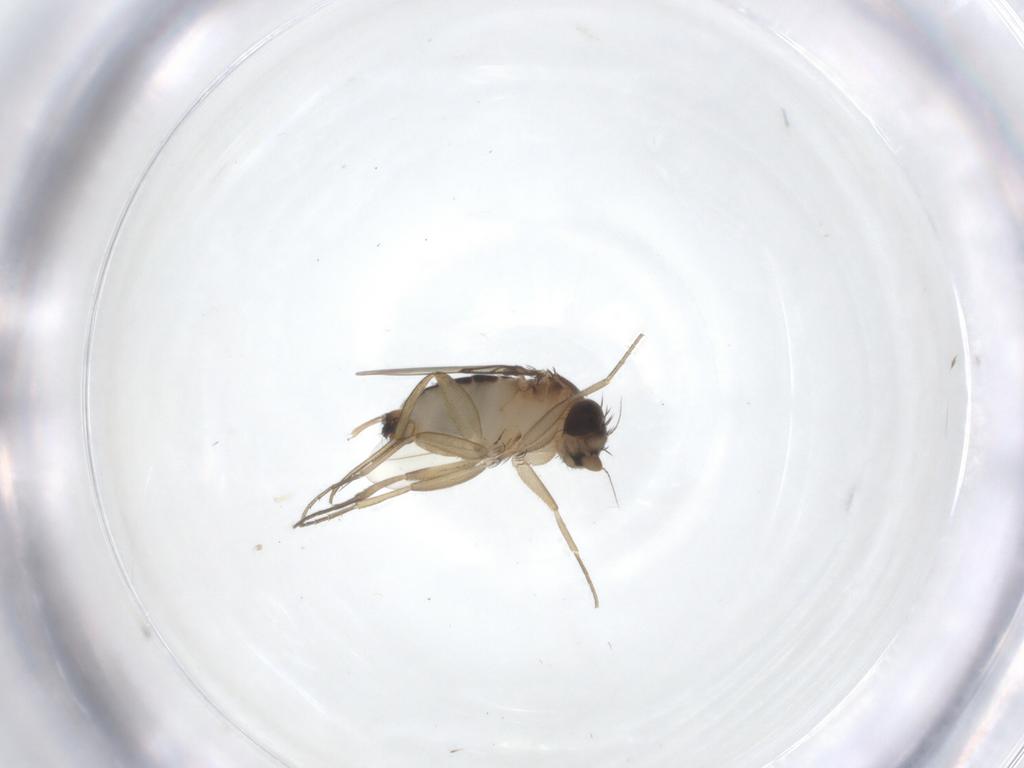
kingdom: Animalia
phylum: Arthropoda
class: Insecta
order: Diptera
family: Phoridae
